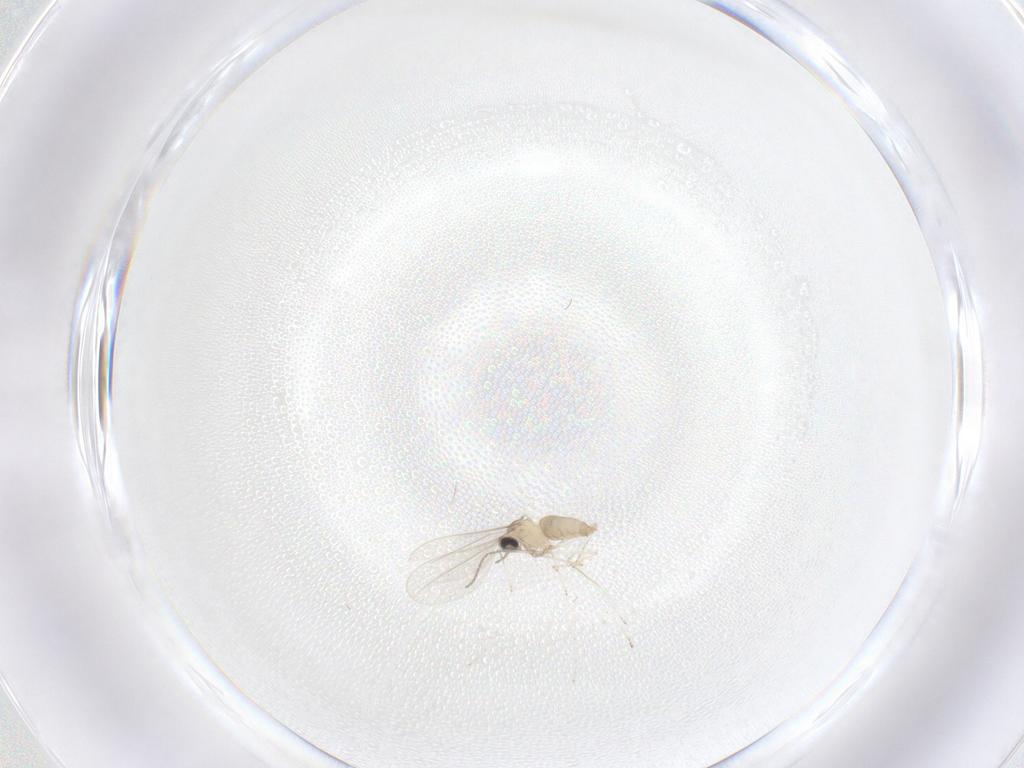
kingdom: Animalia
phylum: Arthropoda
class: Insecta
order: Diptera
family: Cecidomyiidae
